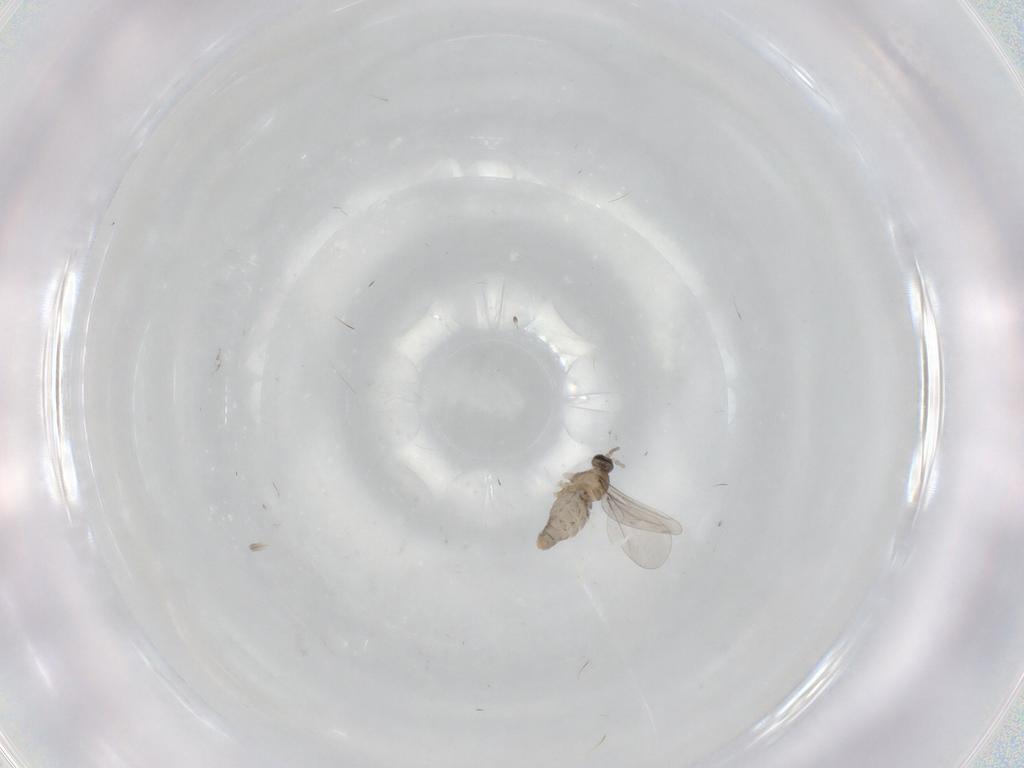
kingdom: Animalia
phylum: Arthropoda
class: Insecta
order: Diptera
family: Cecidomyiidae
